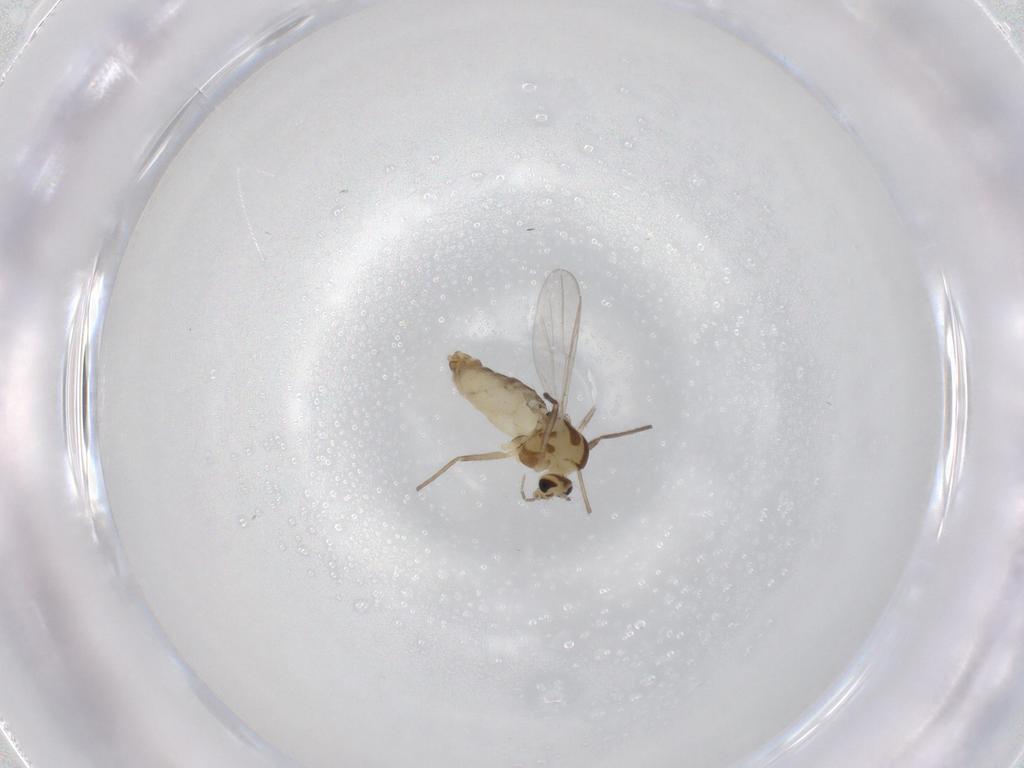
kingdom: Animalia
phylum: Arthropoda
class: Insecta
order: Diptera
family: Chironomidae
